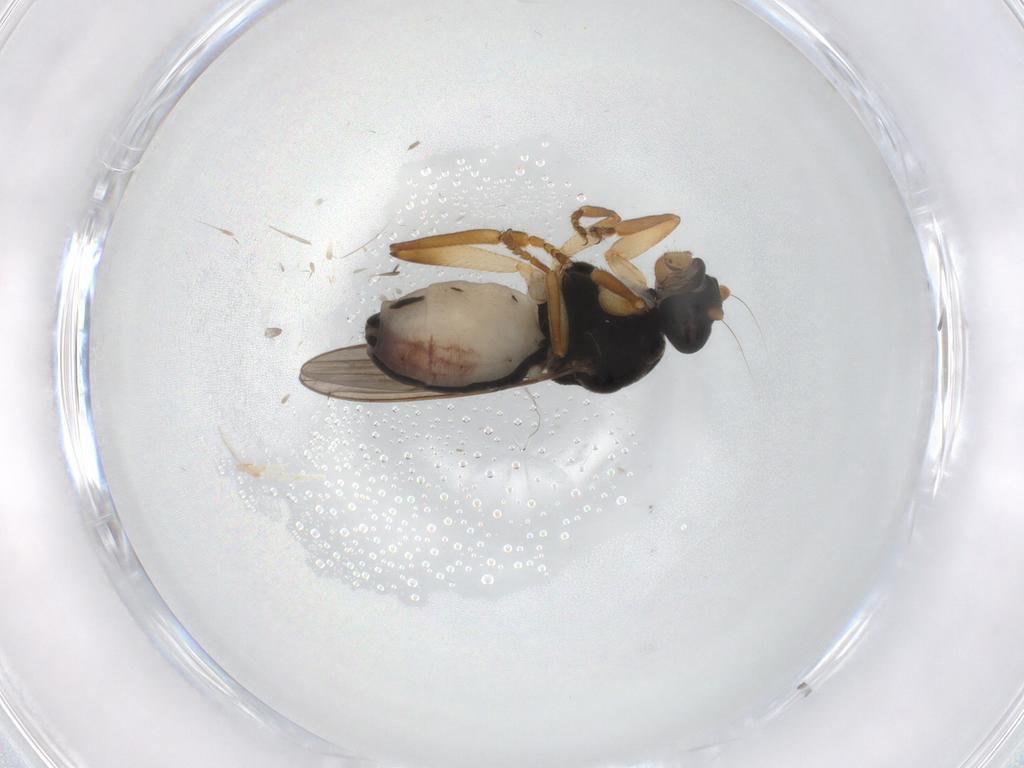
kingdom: Animalia
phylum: Arthropoda
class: Insecta
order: Diptera
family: Sphaeroceridae
